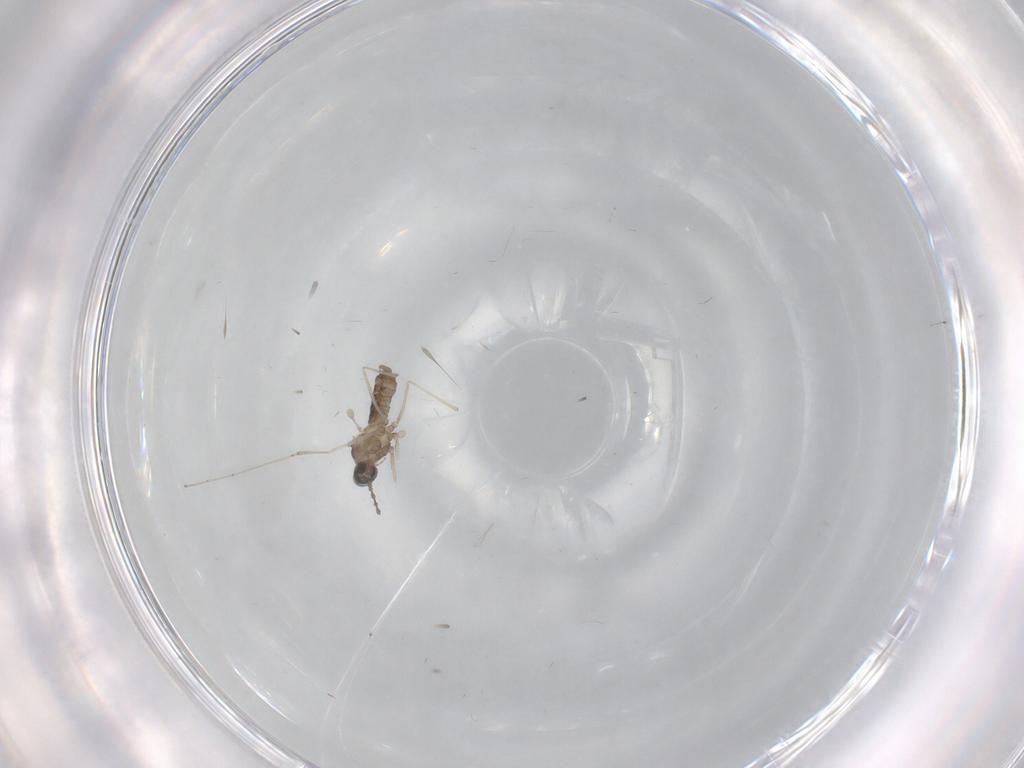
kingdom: Animalia
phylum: Arthropoda
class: Insecta
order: Diptera
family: Cecidomyiidae
